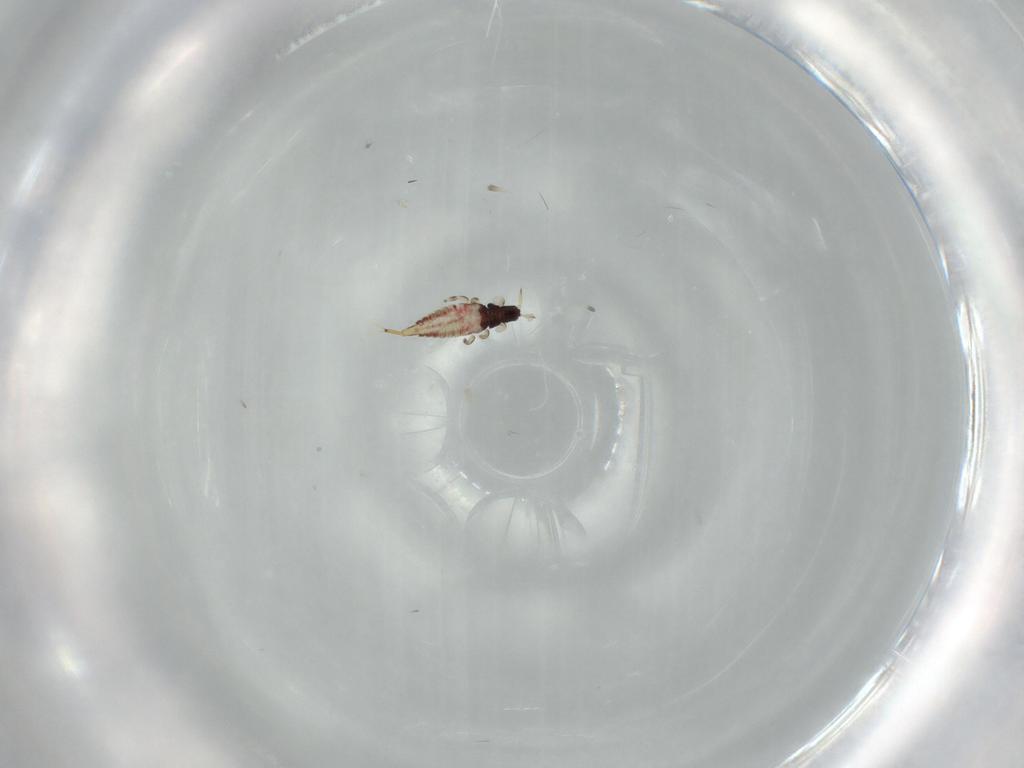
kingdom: Animalia
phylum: Arthropoda
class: Insecta
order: Thysanoptera
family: Phlaeothripidae
